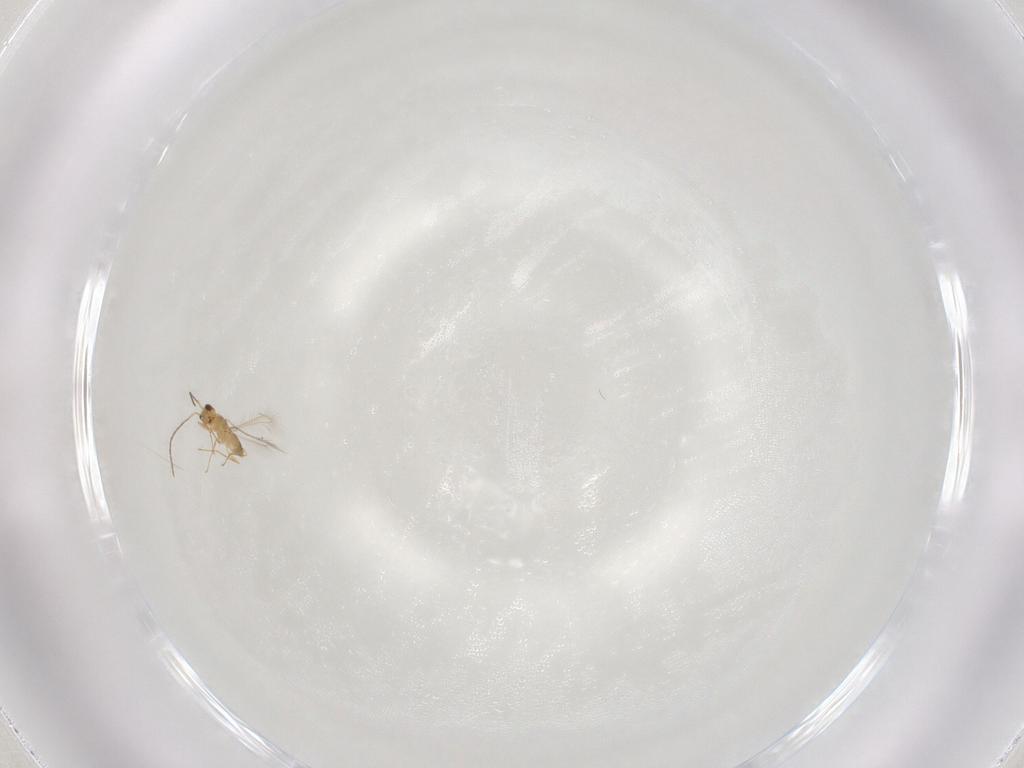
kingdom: Animalia
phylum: Arthropoda
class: Insecta
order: Hymenoptera
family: Mymaridae
